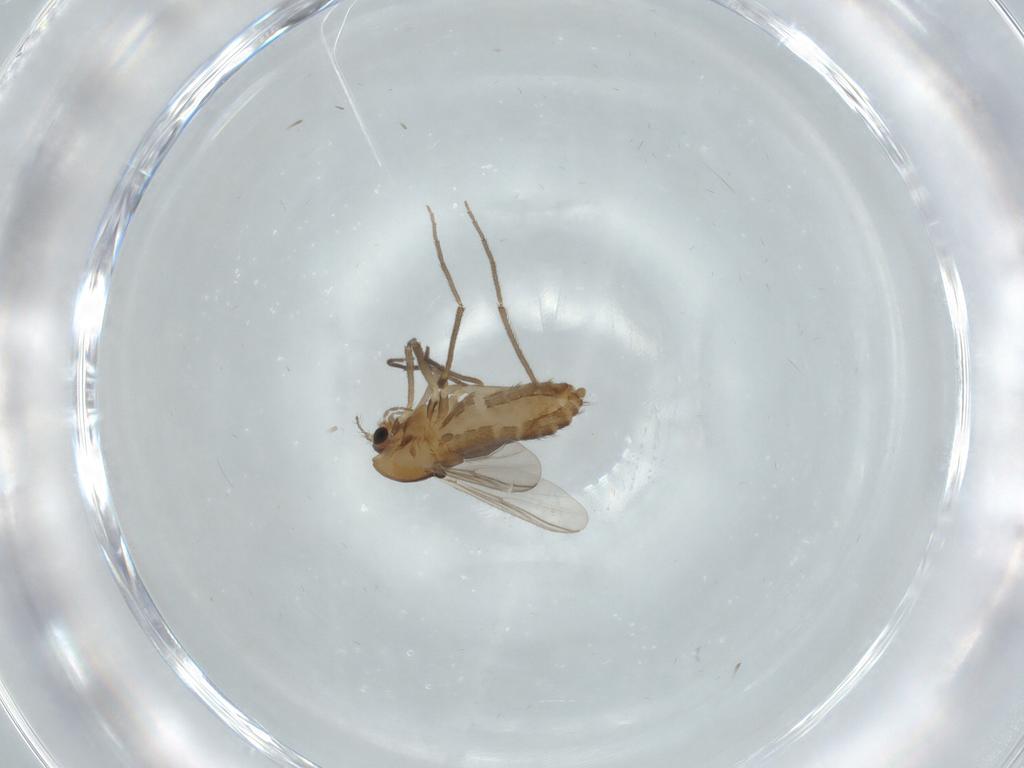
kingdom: Animalia
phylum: Arthropoda
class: Insecta
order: Diptera
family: Chironomidae
